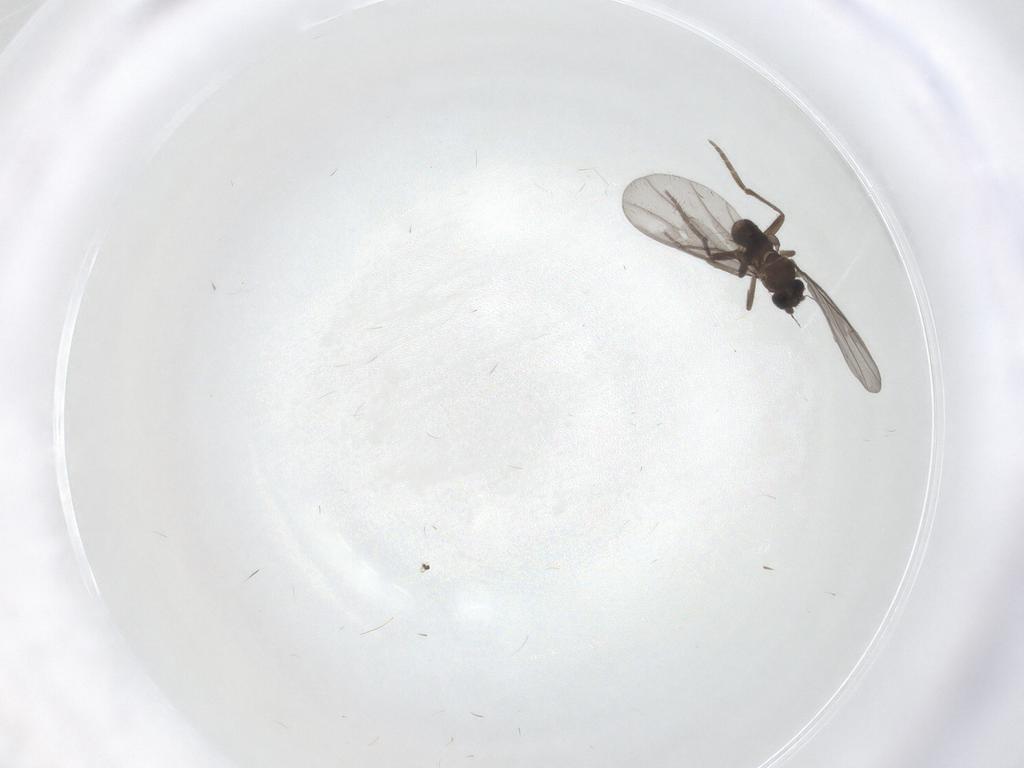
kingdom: Animalia
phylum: Arthropoda
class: Insecta
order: Diptera
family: Phoridae
